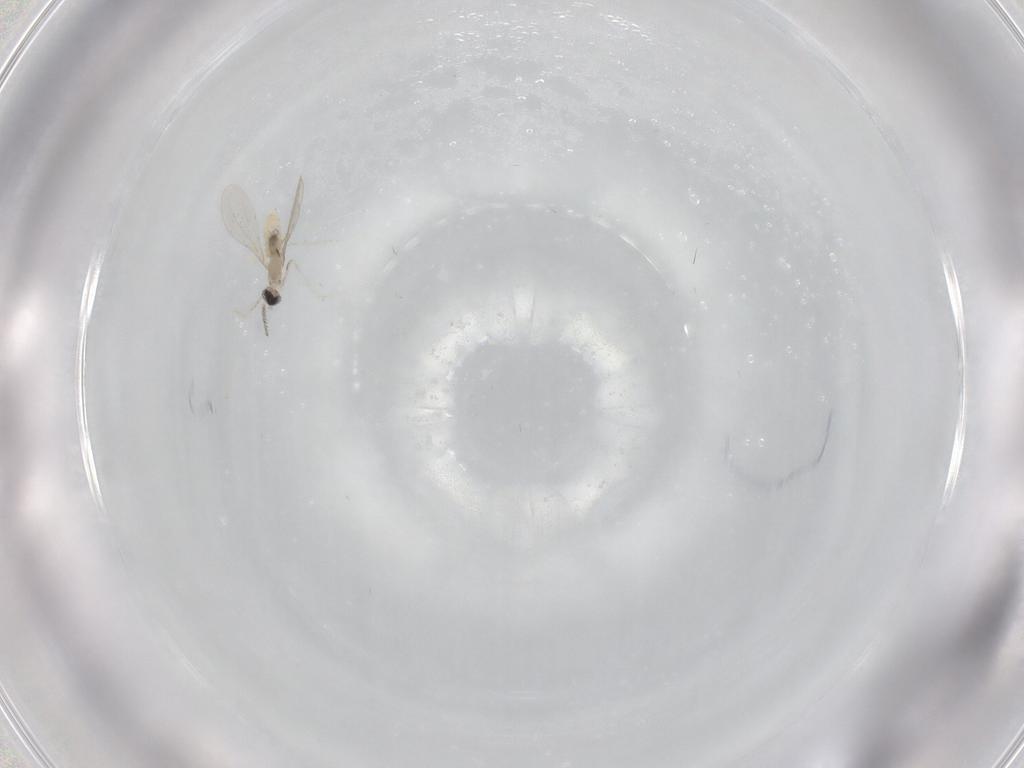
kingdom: Animalia
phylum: Arthropoda
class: Insecta
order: Diptera
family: Cecidomyiidae
